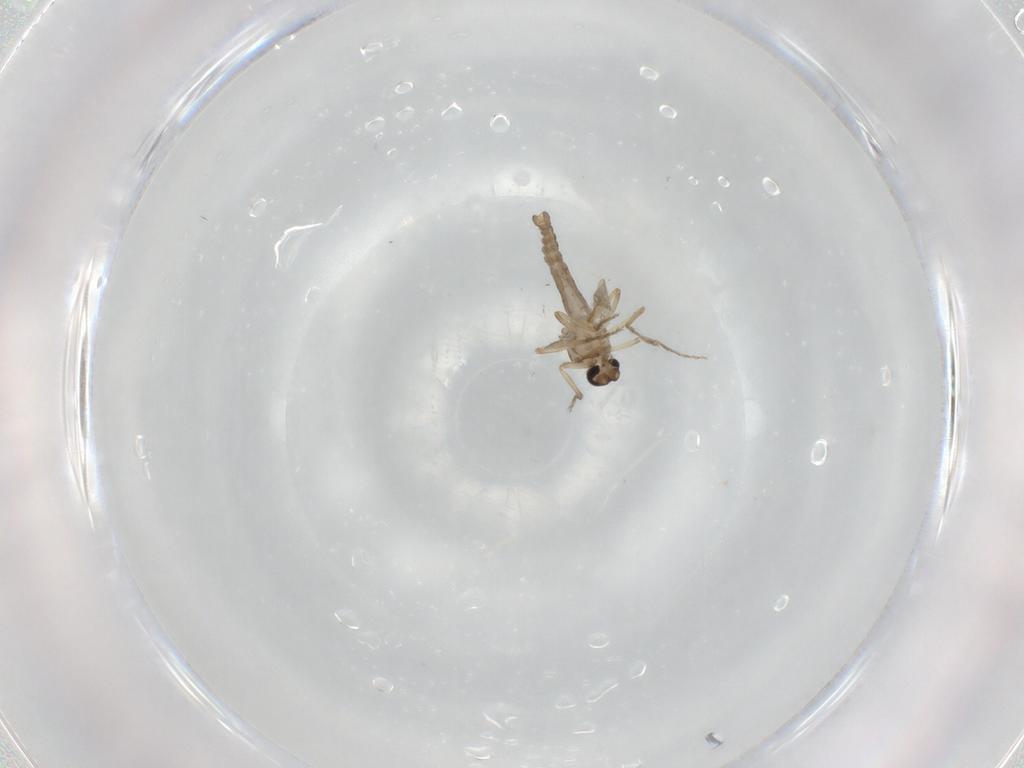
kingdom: Animalia
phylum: Arthropoda
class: Insecta
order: Diptera
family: Ceratopogonidae
